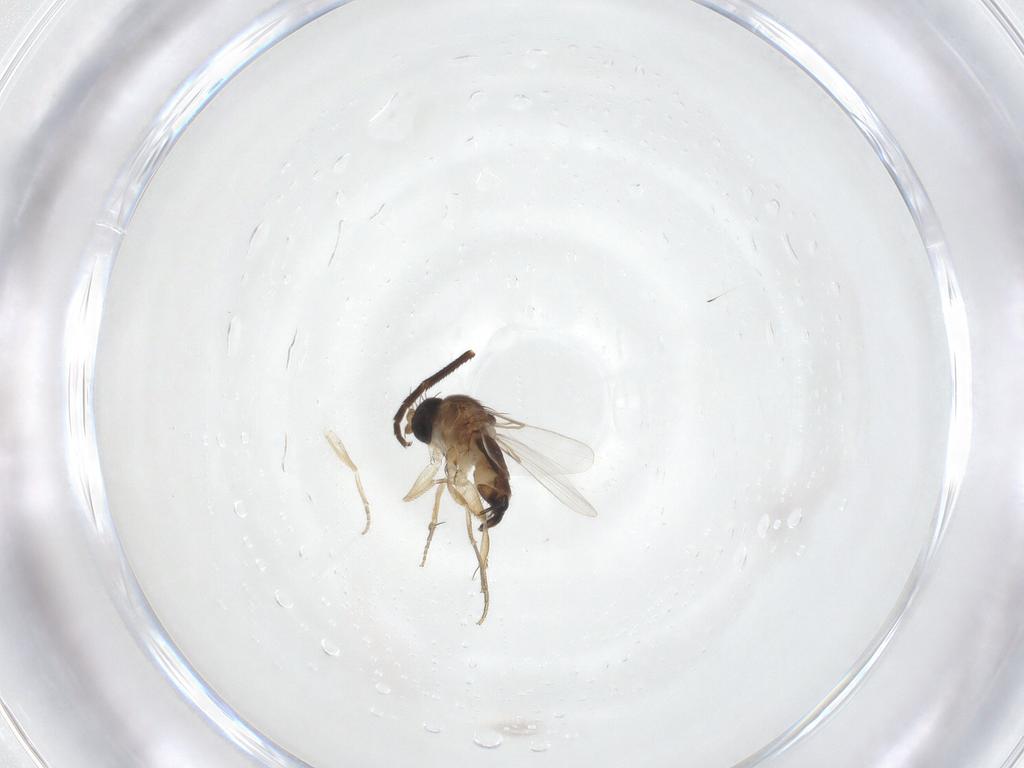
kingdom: Animalia
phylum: Arthropoda
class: Insecta
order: Diptera
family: Tachinidae
